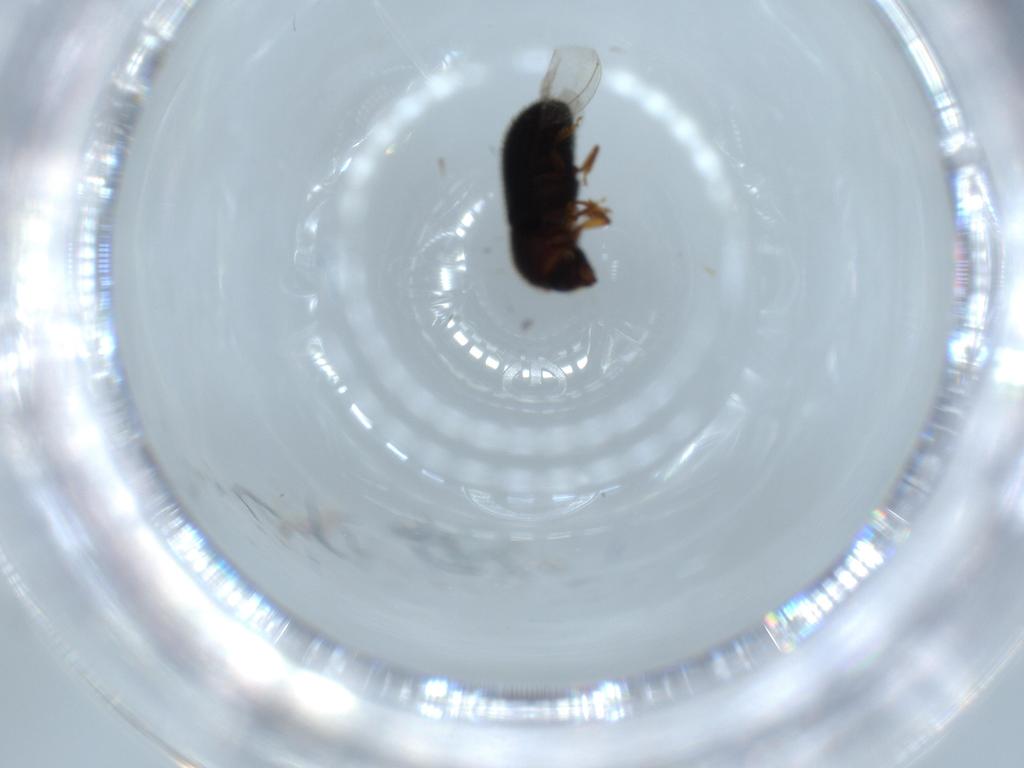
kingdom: Animalia
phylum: Arthropoda
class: Insecta
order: Coleoptera
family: Curculionidae
